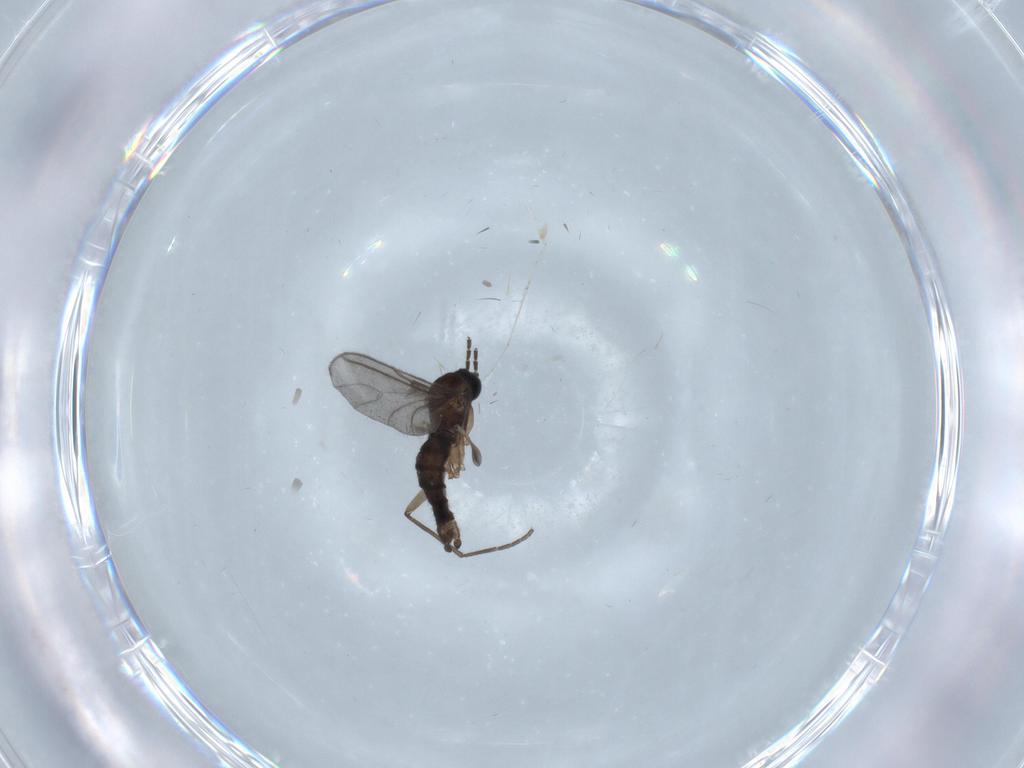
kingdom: Animalia
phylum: Arthropoda
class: Insecta
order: Diptera
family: Sciaridae
